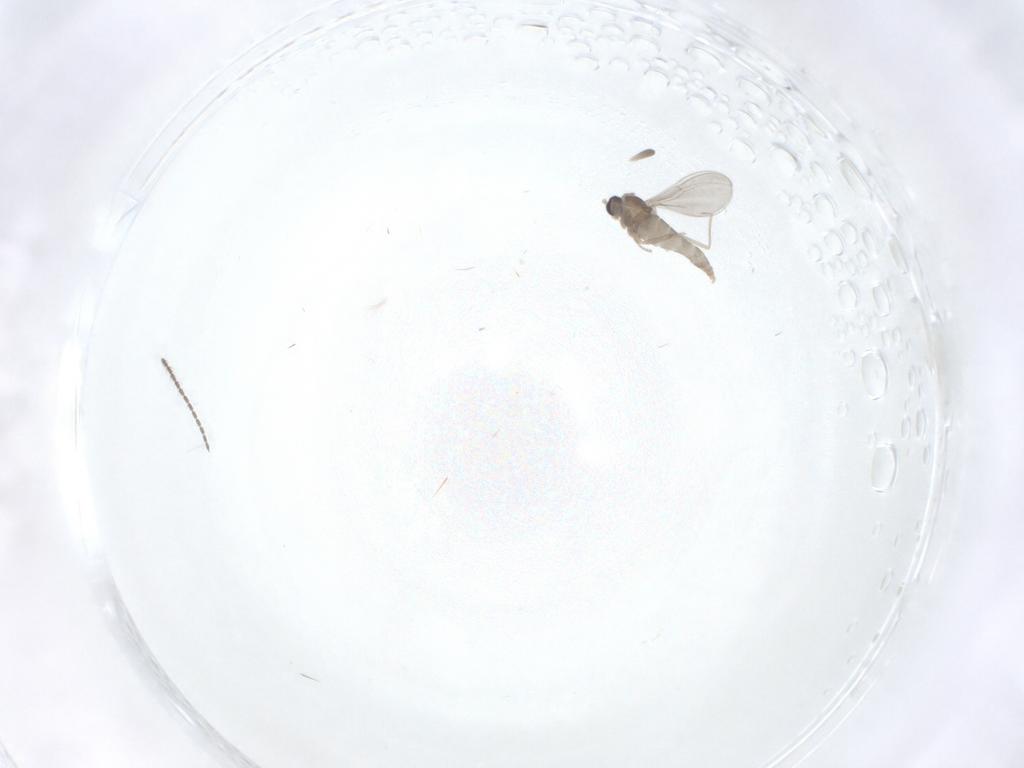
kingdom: Animalia
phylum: Arthropoda
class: Insecta
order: Diptera
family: Cecidomyiidae
